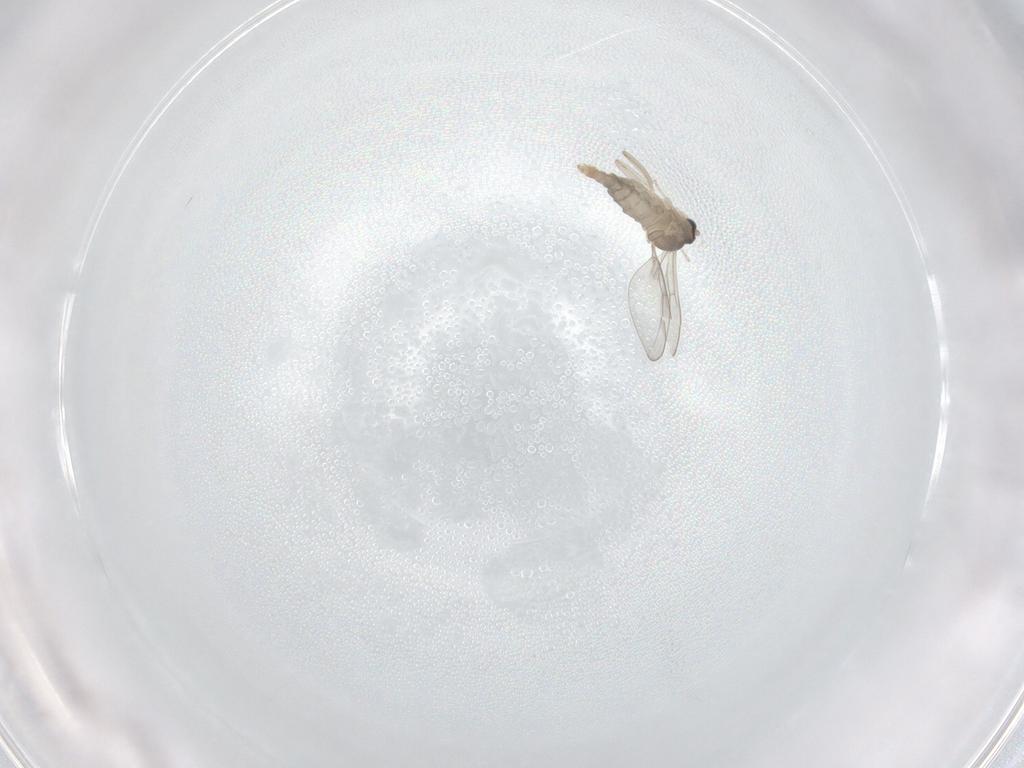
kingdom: Animalia
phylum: Arthropoda
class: Insecta
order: Diptera
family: Cecidomyiidae
